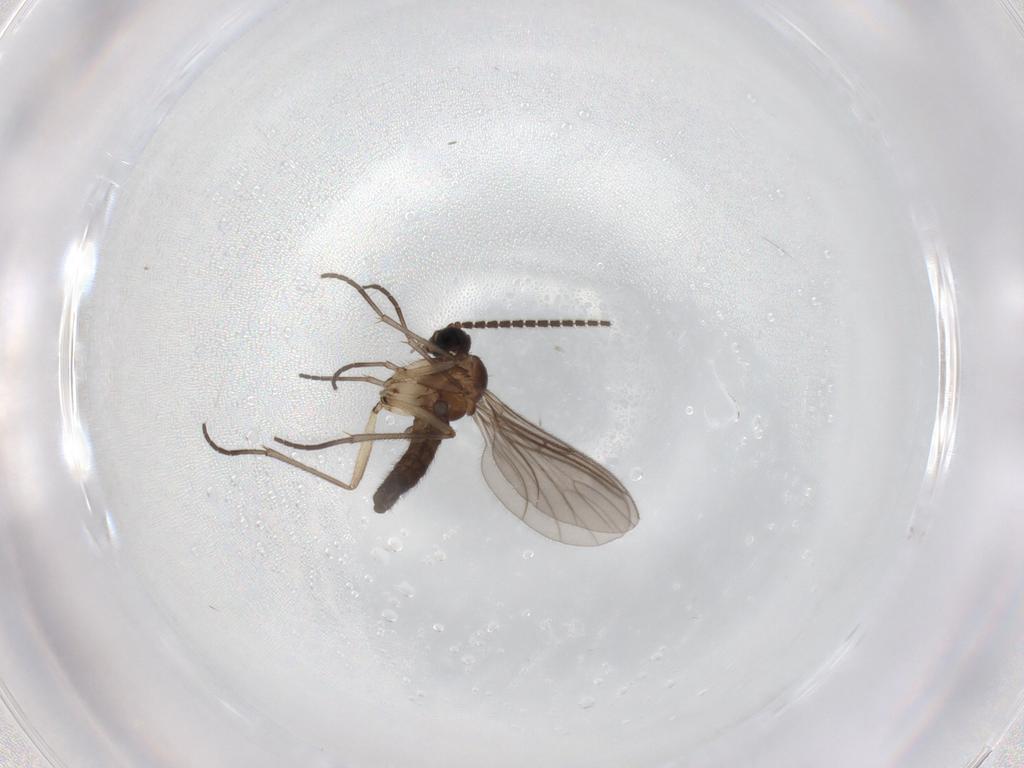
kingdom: Animalia
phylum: Arthropoda
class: Insecta
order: Diptera
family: Sciaridae
